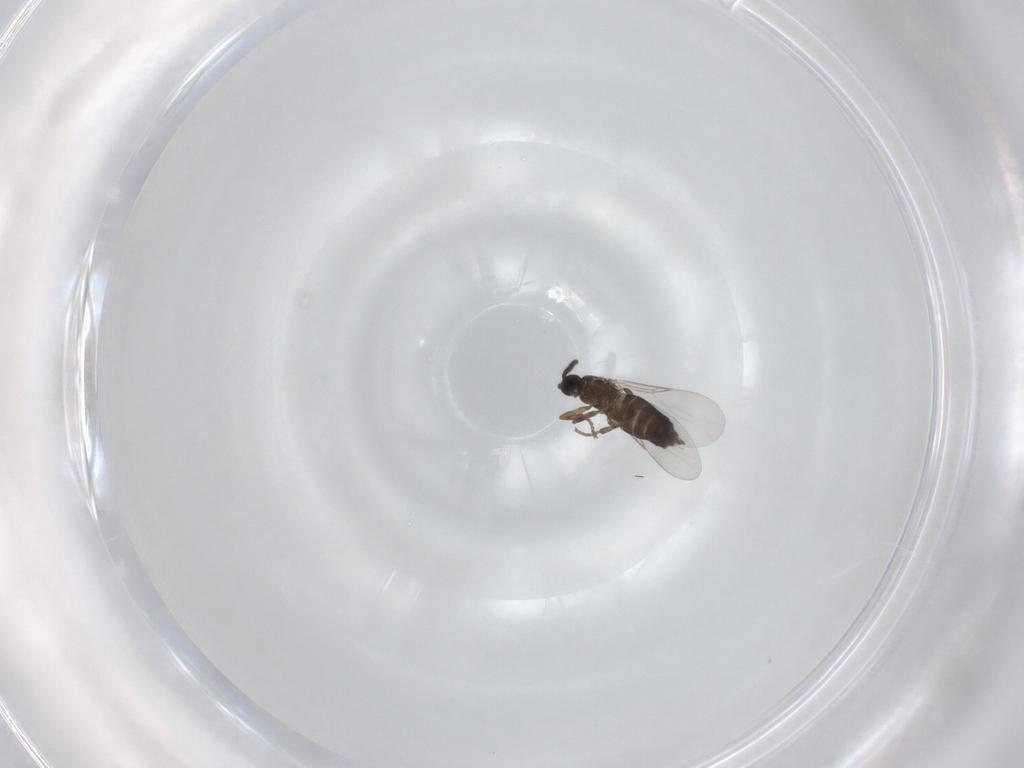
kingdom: Animalia
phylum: Arthropoda
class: Insecta
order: Diptera
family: Scatopsidae
